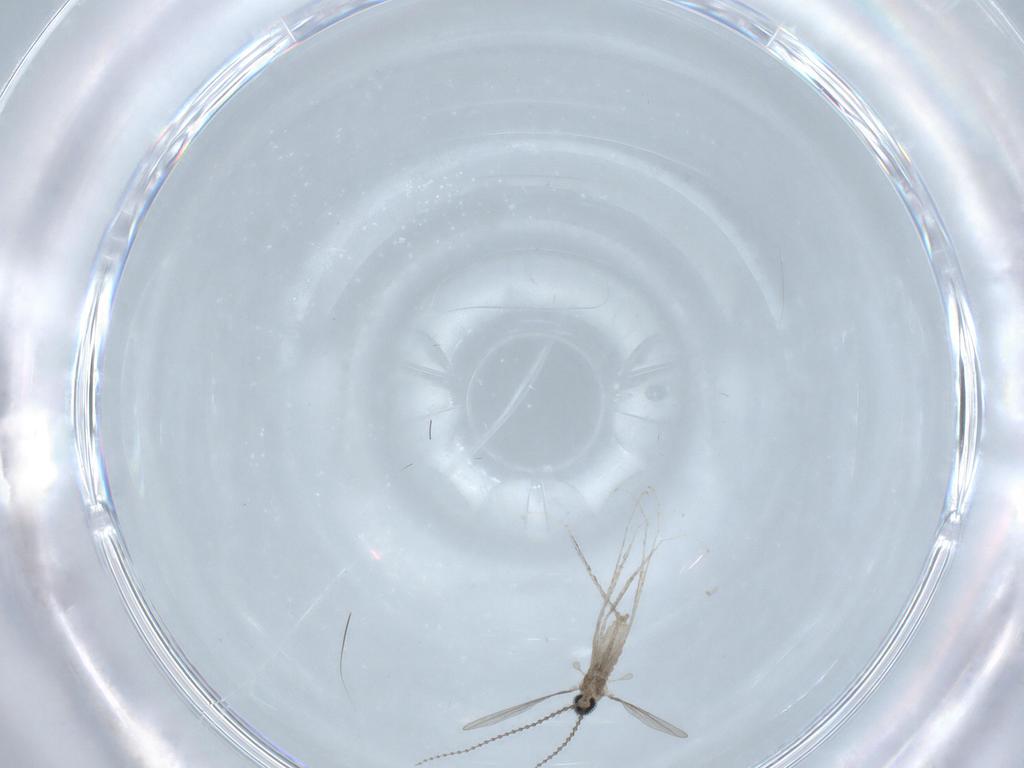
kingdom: Animalia
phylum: Arthropoda
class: Insecta
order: Diptera
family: Cecidomyiidae
